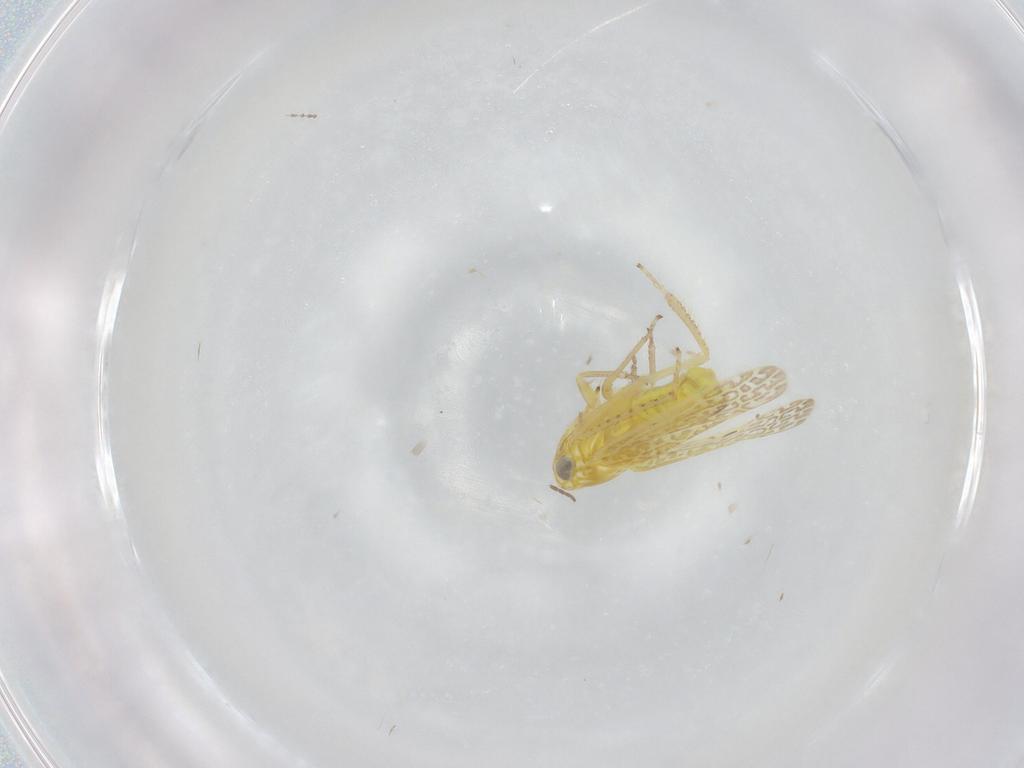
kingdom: Animalia
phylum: Arthropoda
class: Insecta
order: Hemiptera
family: Cicadellidae
